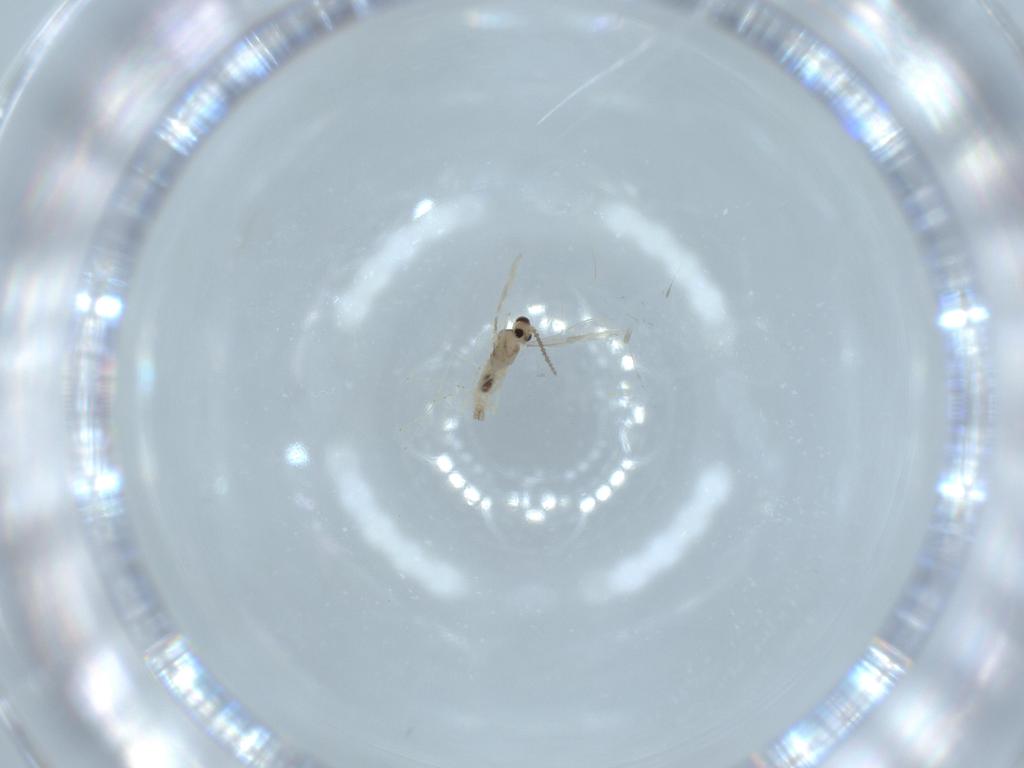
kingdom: Animalia
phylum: Arthropoda
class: Insecta
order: Diptera
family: Cecidomyiidae
